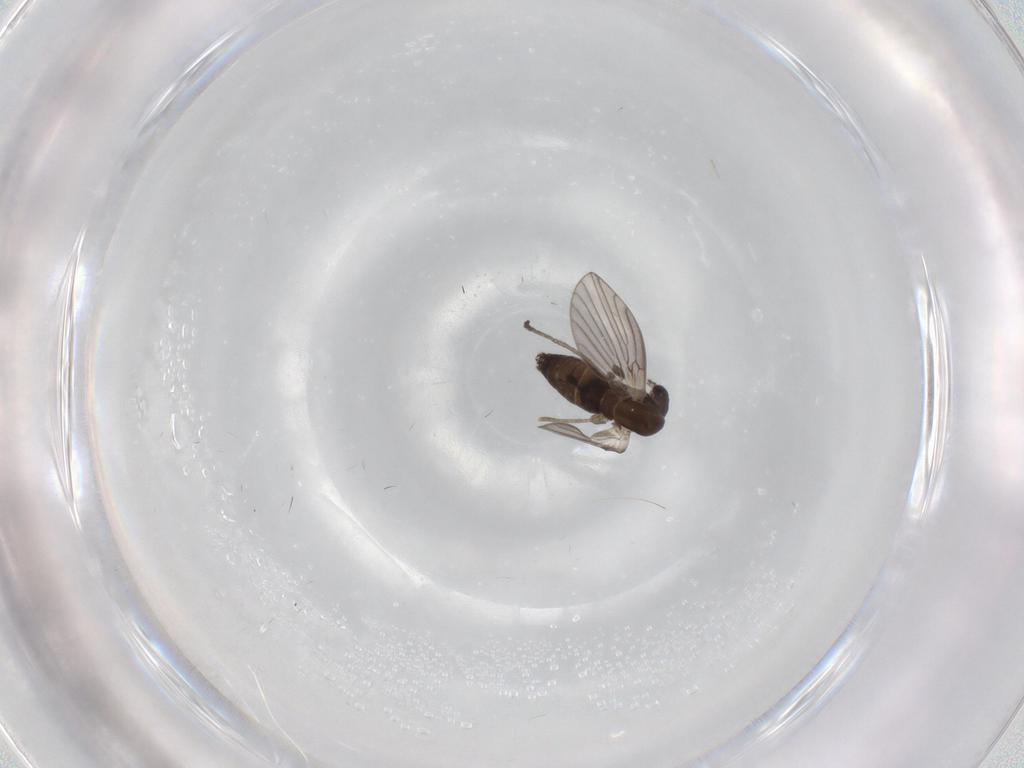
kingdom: Animalia
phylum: Arthropoda
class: Insecta
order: Diptera
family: Sphaeroceridae
